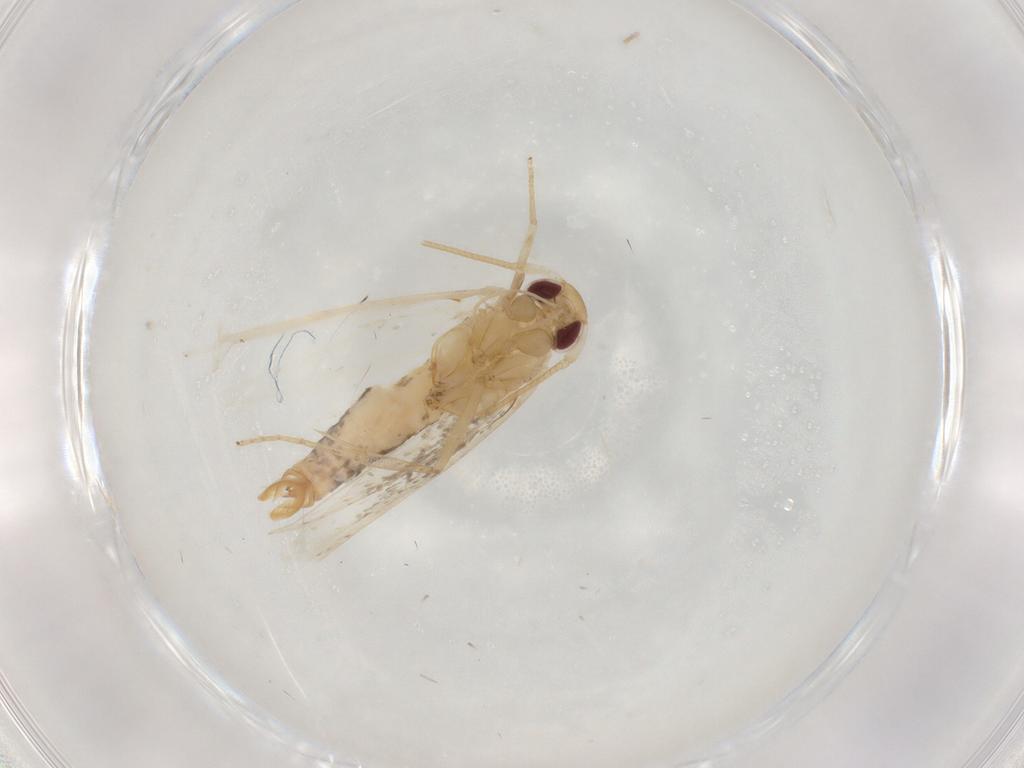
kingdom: Animalia
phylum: Arthropoda
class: Insecta
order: Lepidoptera
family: Cosmopterigidae
